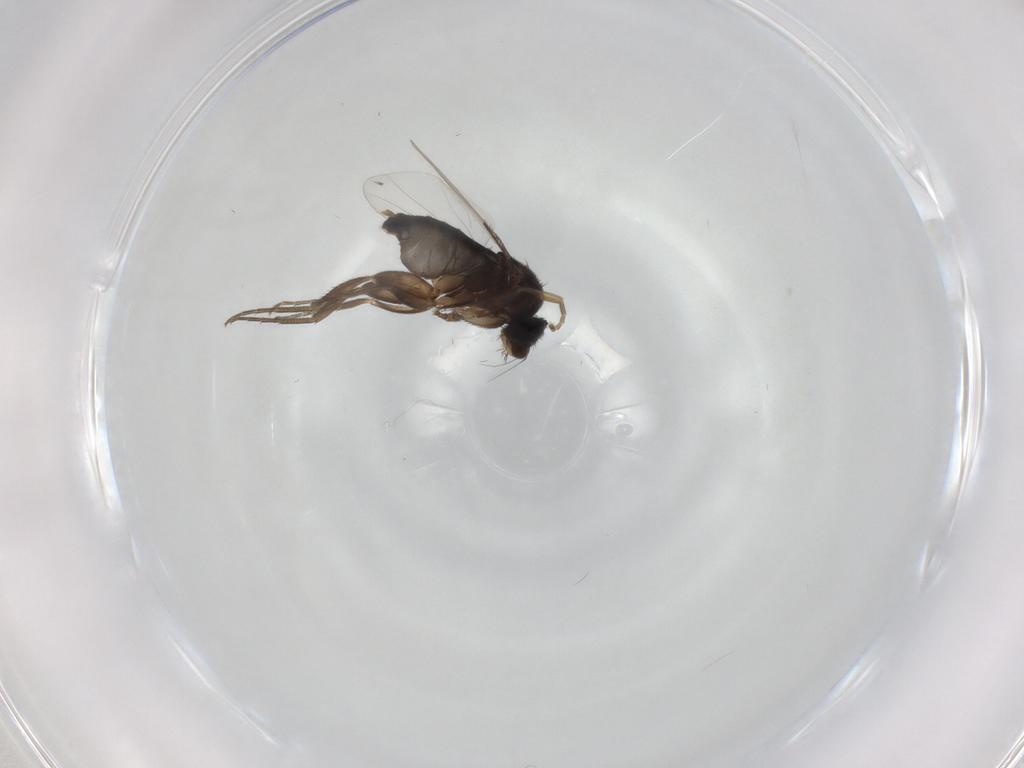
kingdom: Animalia
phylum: Arthropoda
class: Insecta
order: Diptera
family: Phoridae
